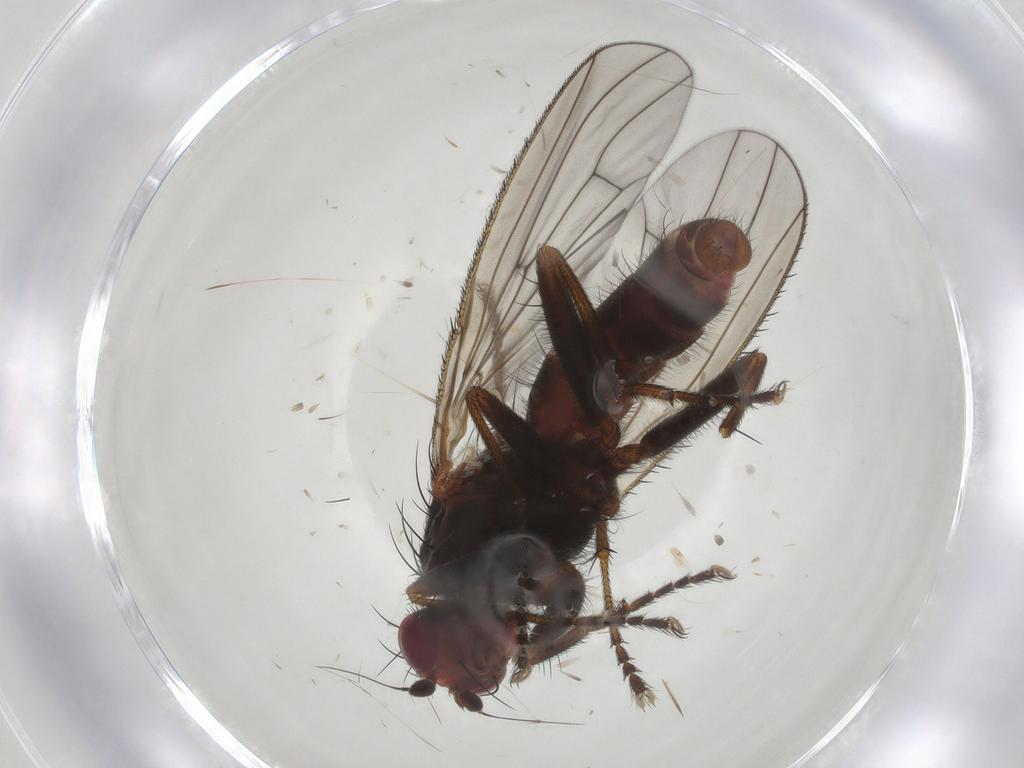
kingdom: Animalia
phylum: Arthropoda
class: Insecta
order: Diptera
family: Heleomyzidae
